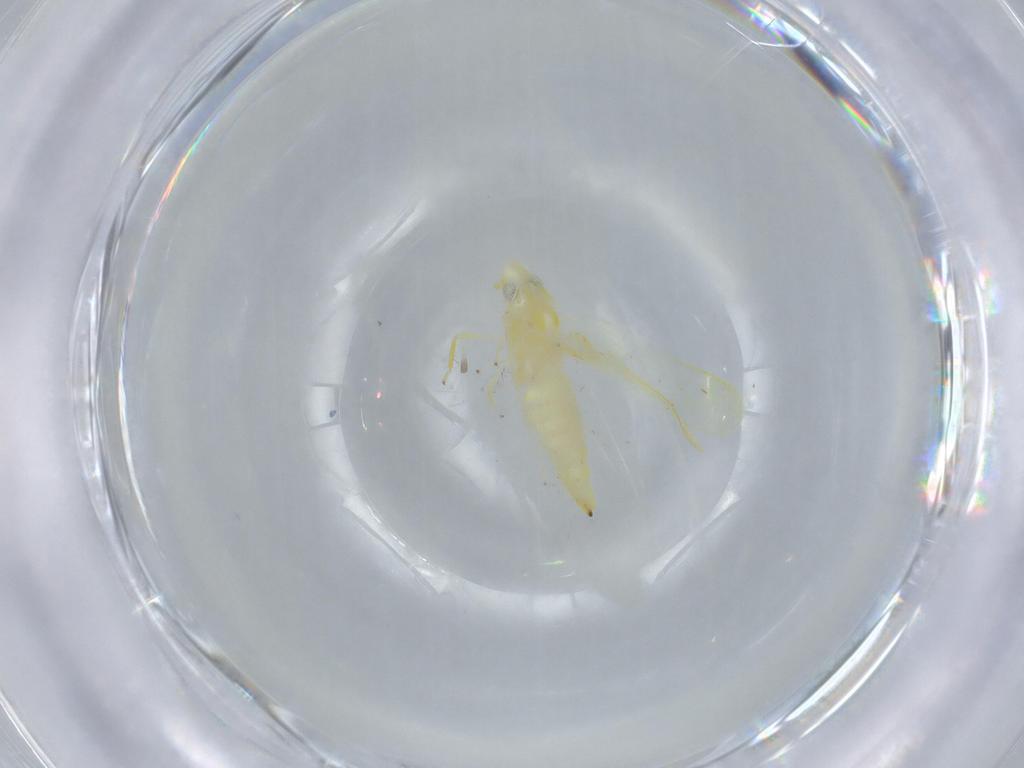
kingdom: Animalia
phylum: Arthropoda
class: Insecta
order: Hemiptera
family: Cicadellidae
